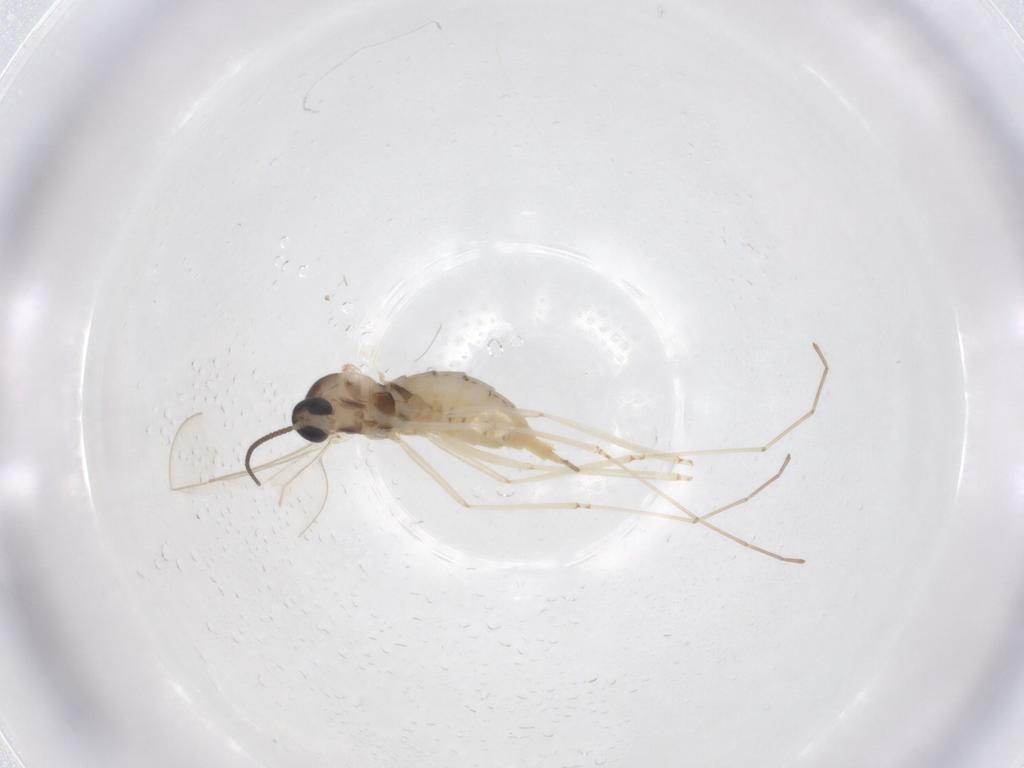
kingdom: Animalia
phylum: Arthropoda
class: Insecta
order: Diptera
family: Cecidomyiidae
